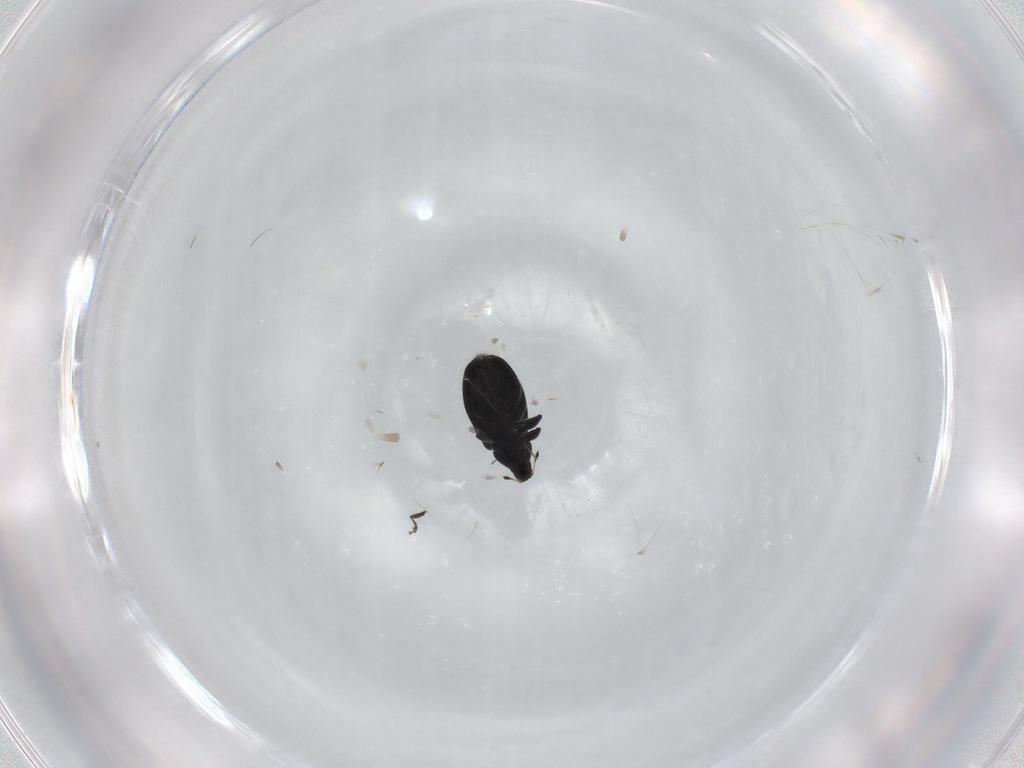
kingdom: Animalia
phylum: Arthropoda
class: Insecta
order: Coleoptera
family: Curculionidae
